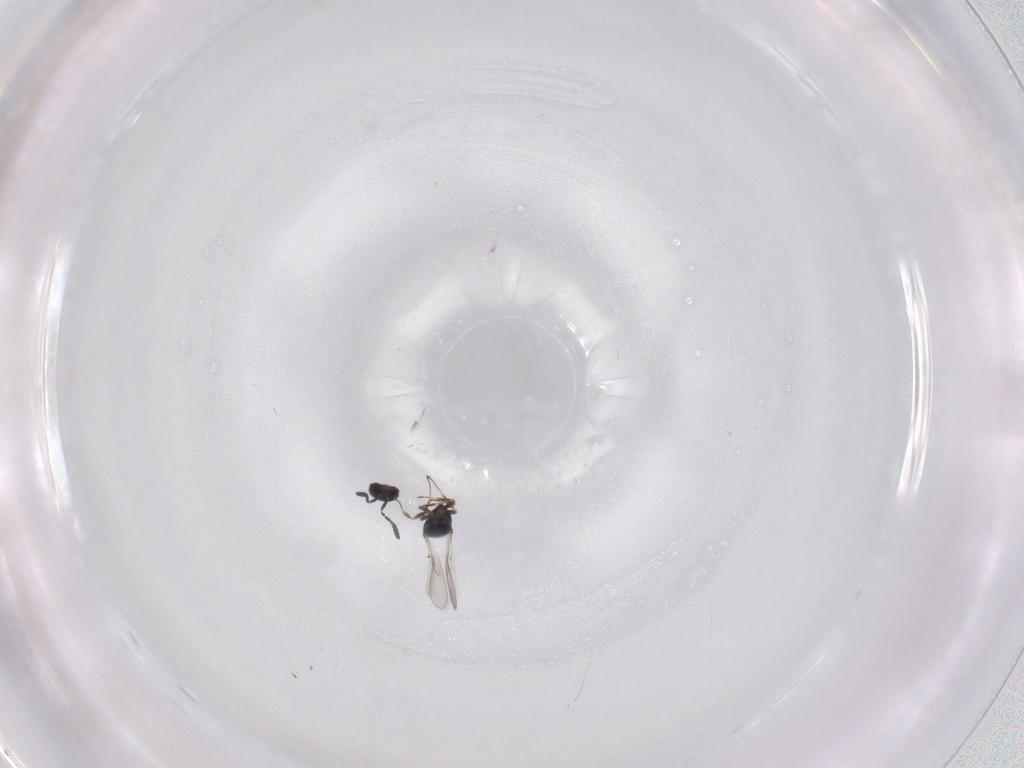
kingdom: Animalia
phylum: Arthropoda
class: Insecta
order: Hymenoptera
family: Scelionidae
